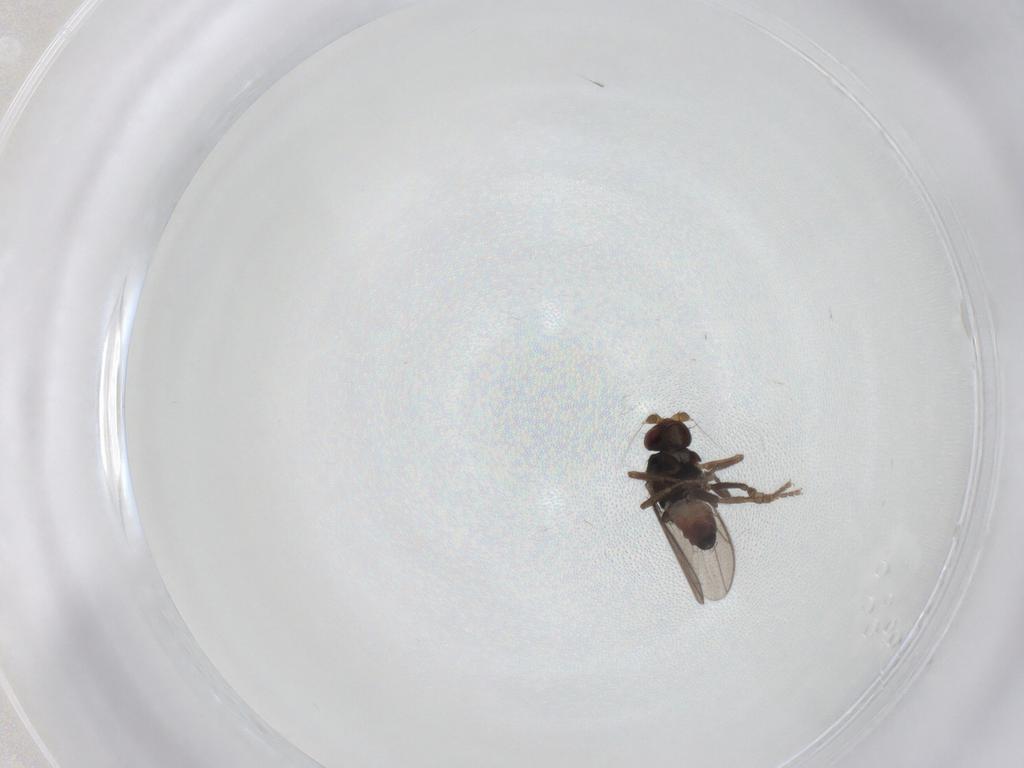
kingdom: Animalia
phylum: Arthropoda
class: Insecta
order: Diptera
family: Sphaeroceridae
